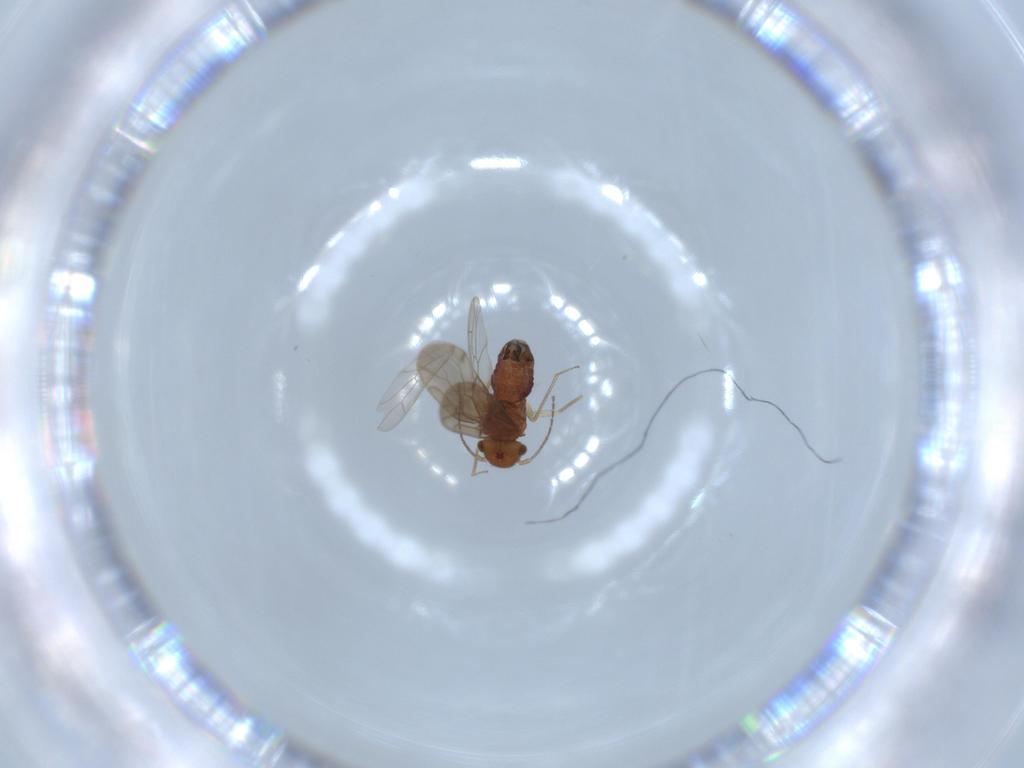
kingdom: Animalia
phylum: Arthropoda
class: Insecta
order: Psocodea
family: Ectopsocidae
